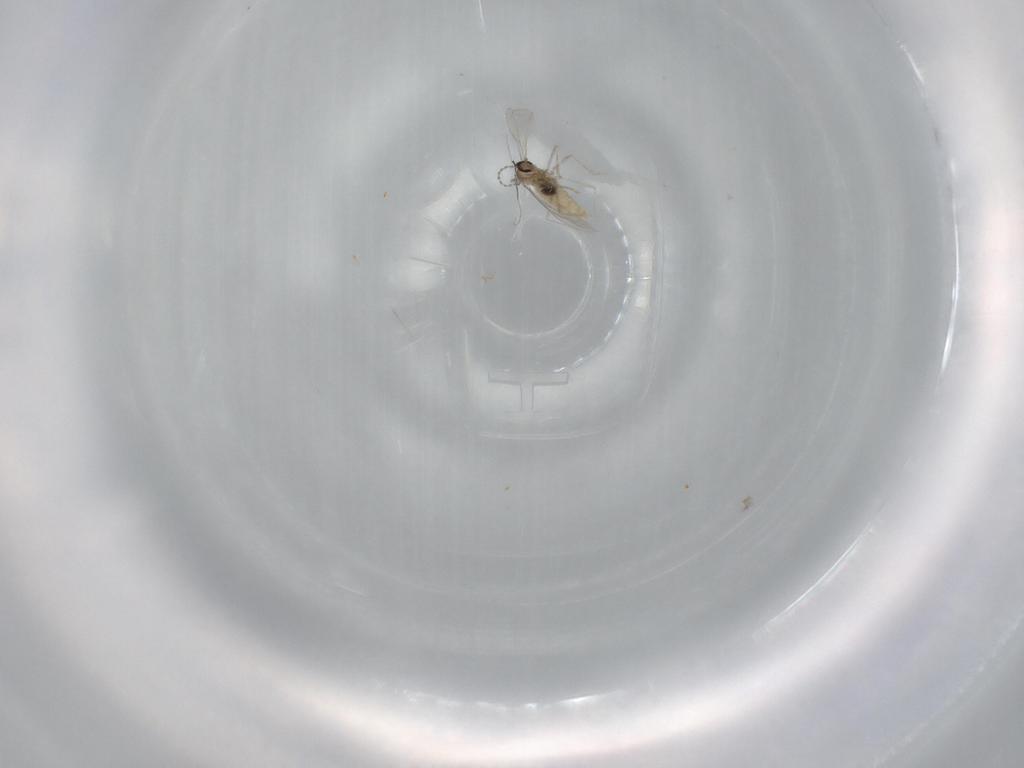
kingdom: Animalia
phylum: Arthropoda
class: Insecta
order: Diptera
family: Cecidomyiidae
